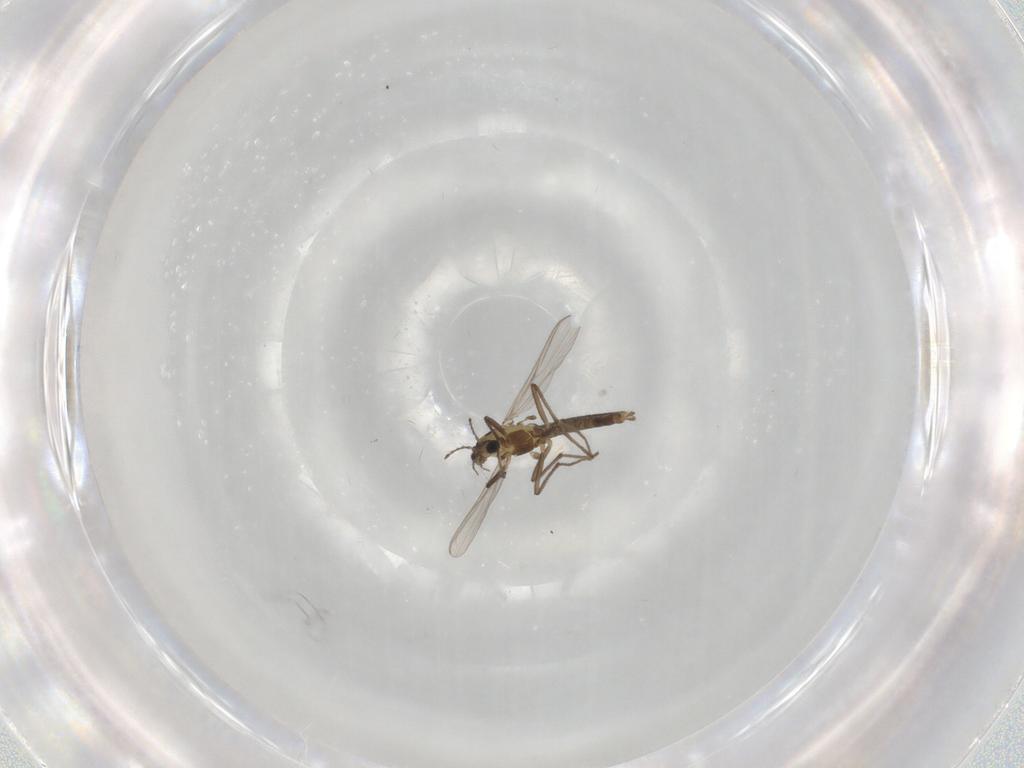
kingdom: Animalia
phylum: Arthropoda
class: Insecta
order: Diptera
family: Chironomidae
